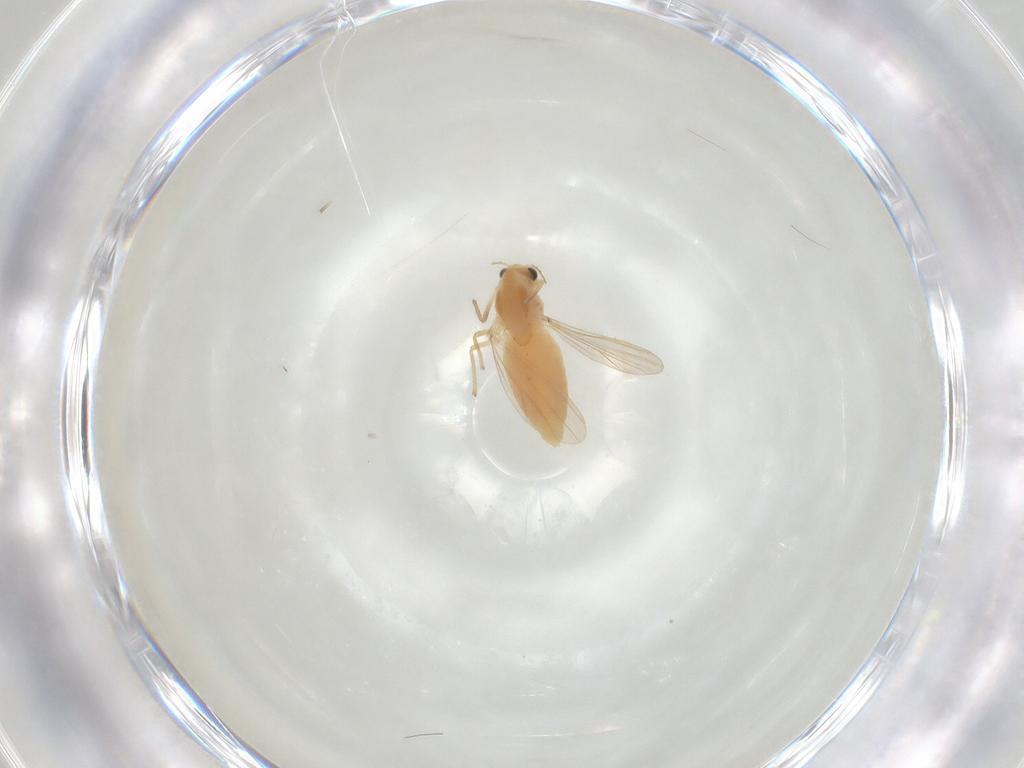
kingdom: Animalia
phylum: Arthropoda
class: Insecta
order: Diptera
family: Chironomidae
